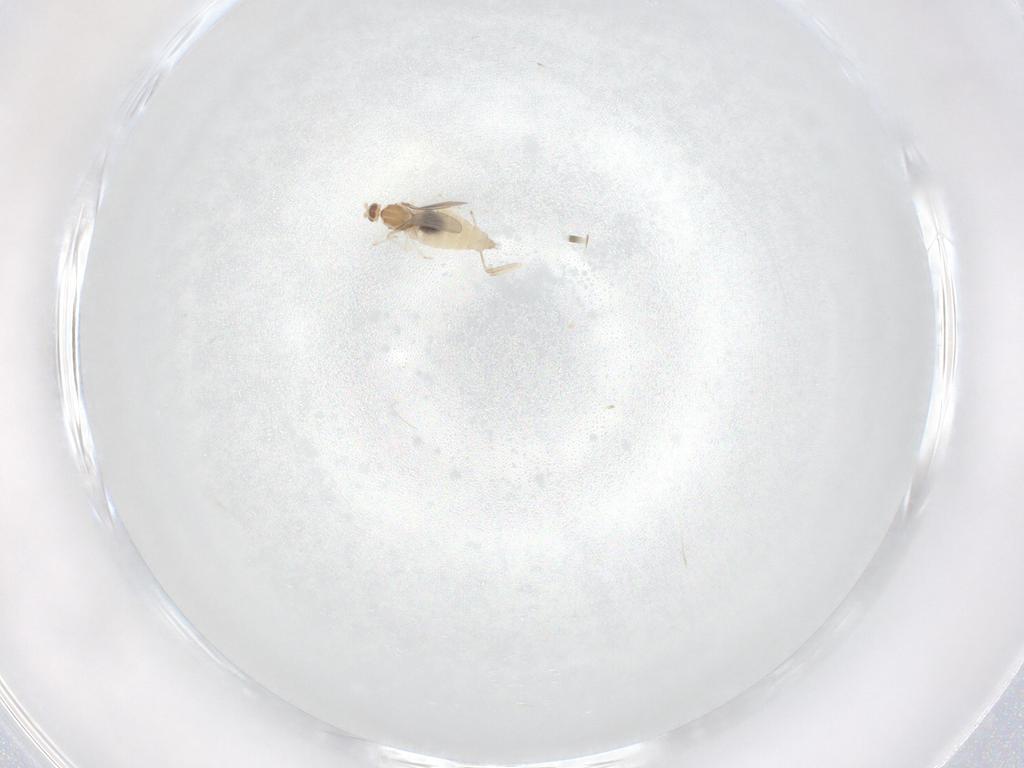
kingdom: Animalia
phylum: Arthropoda
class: Insecta
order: Diptera
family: Cecidomyiidae
